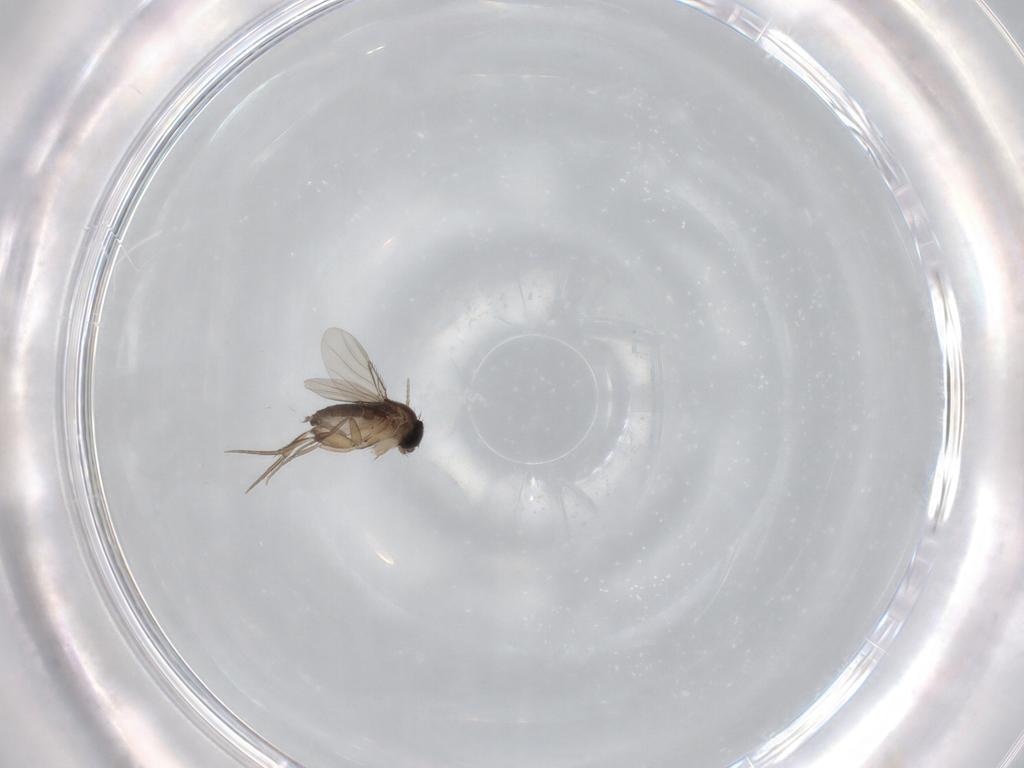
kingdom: Animalia
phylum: Arthropoda
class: Insecta
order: Diptera
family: Phoridae
